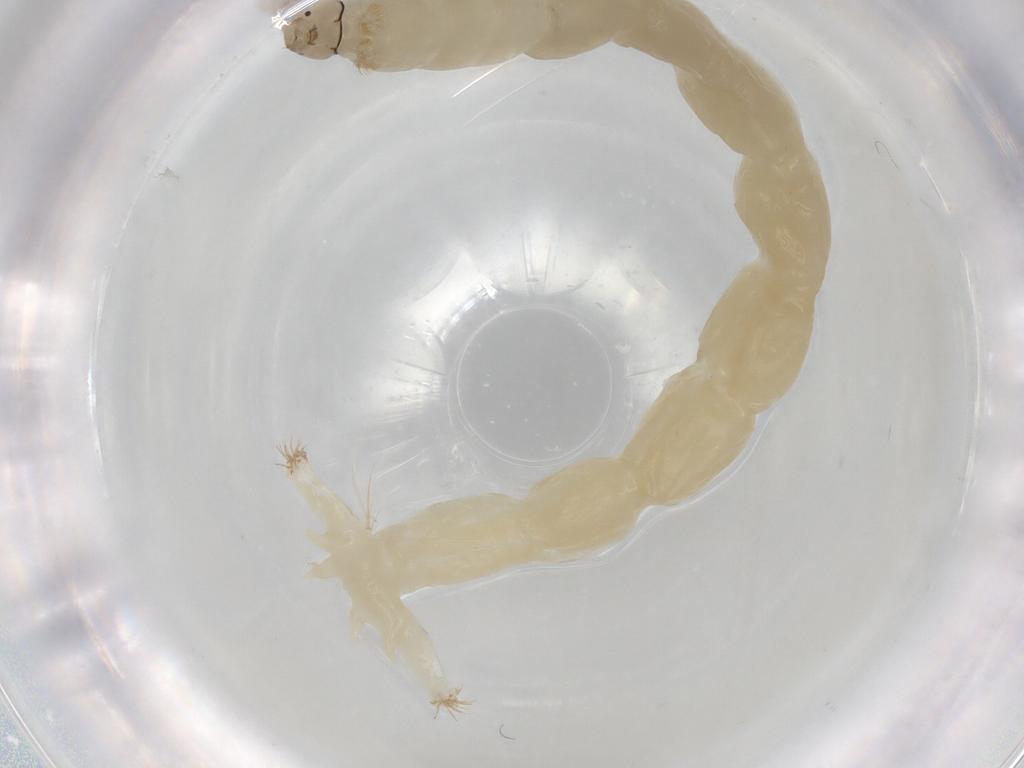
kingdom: Animalia
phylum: Arthropoda
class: Insecta
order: Diptera
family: Chironomidae
